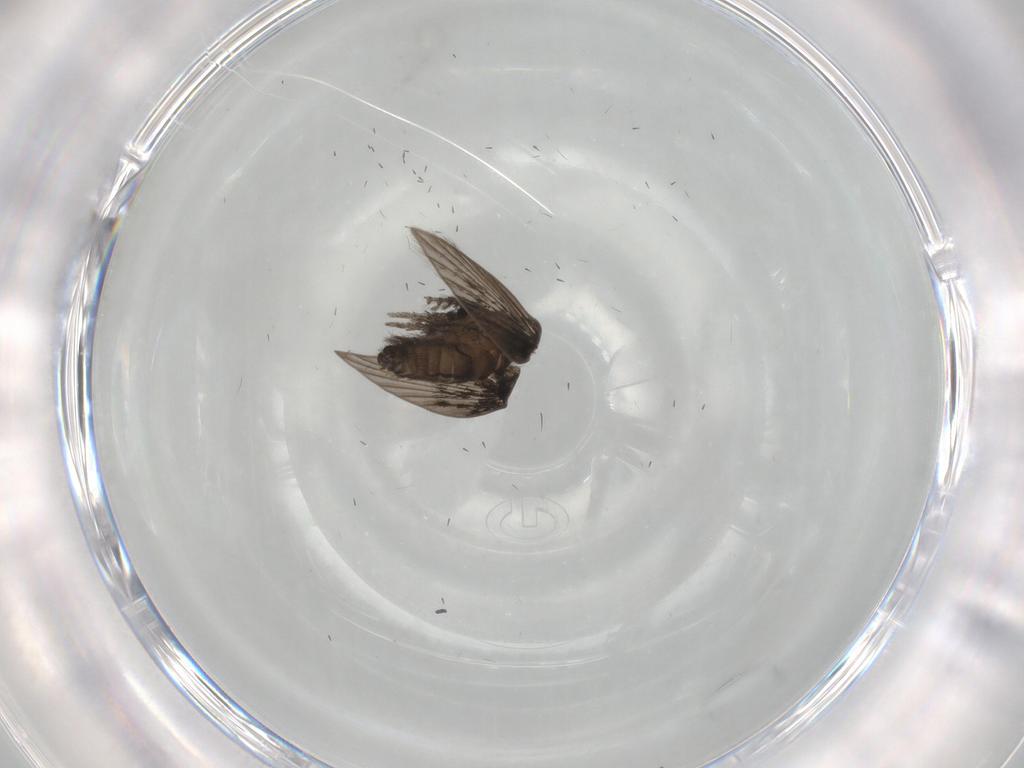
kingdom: Animalia
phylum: Arthropoda
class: Insecta
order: Diptera
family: Psychodidae
